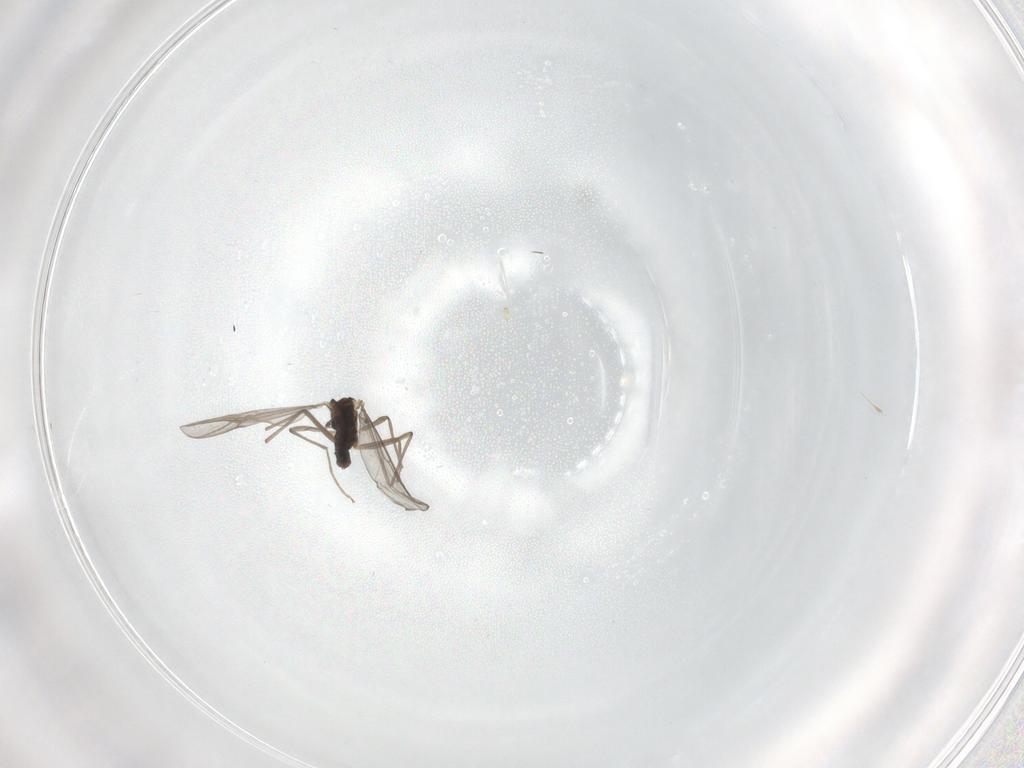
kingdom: Animalia
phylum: Arthropoda
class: Insecta
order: Diptera
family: Chironomidae
